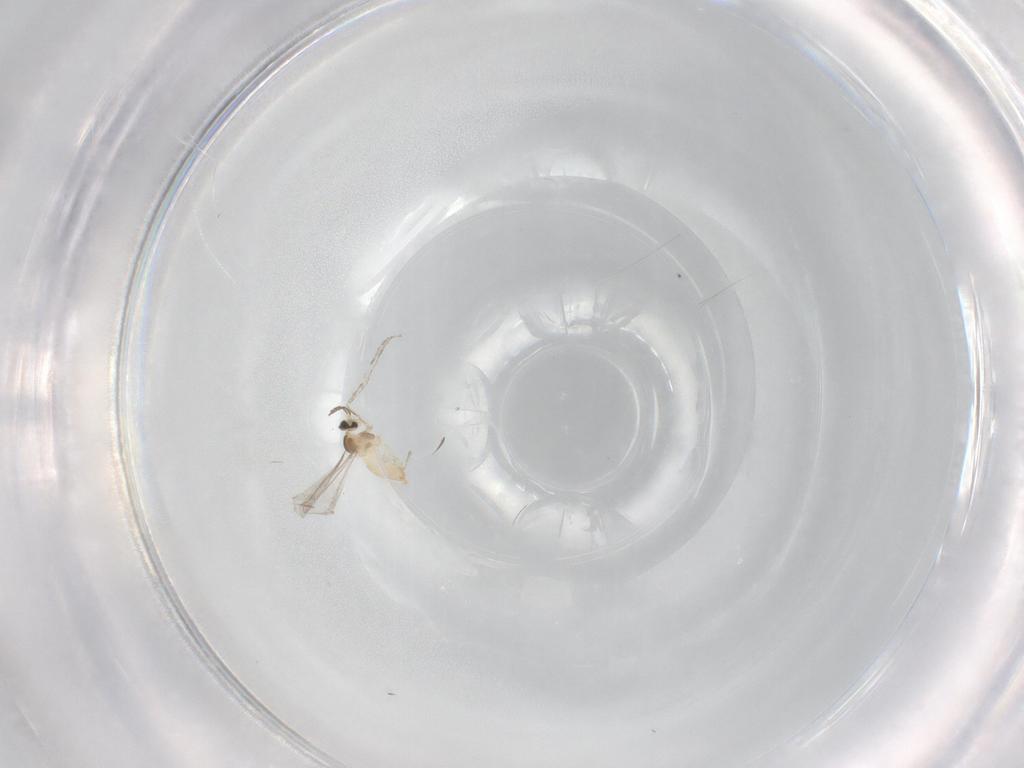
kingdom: Animalia
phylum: Arthropoda
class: Insecta
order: Diptera
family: Cecidomyiidae
